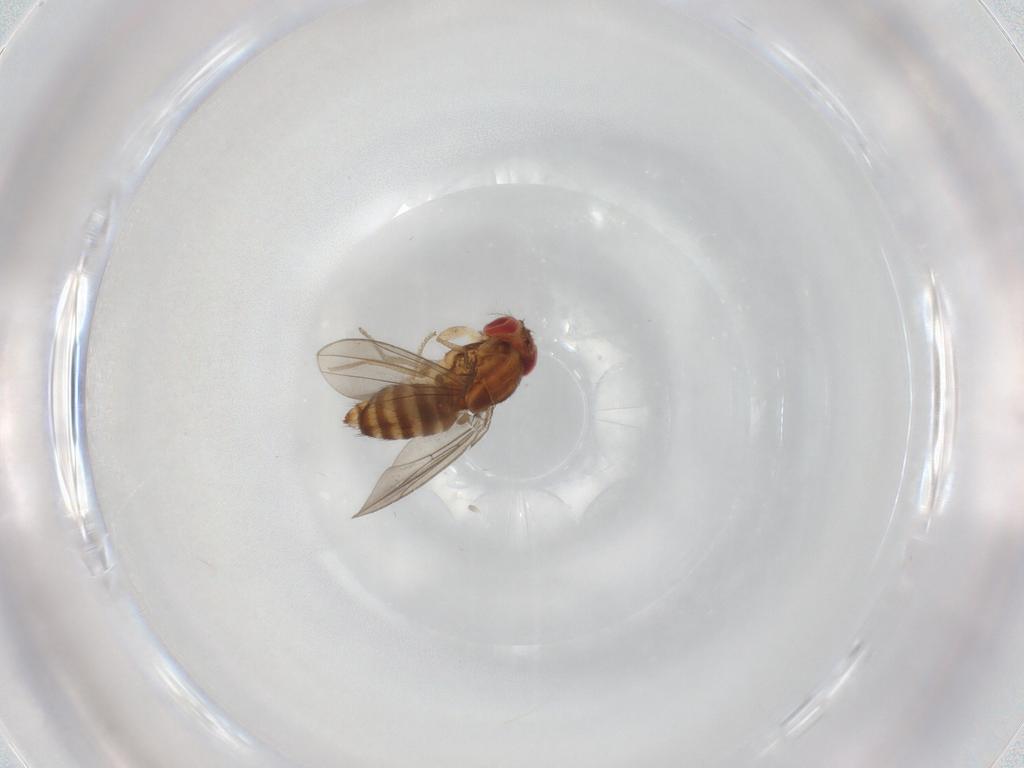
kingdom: Animalia
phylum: Arthropoda
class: Insecta
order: Diptera
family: Drosophilidae
